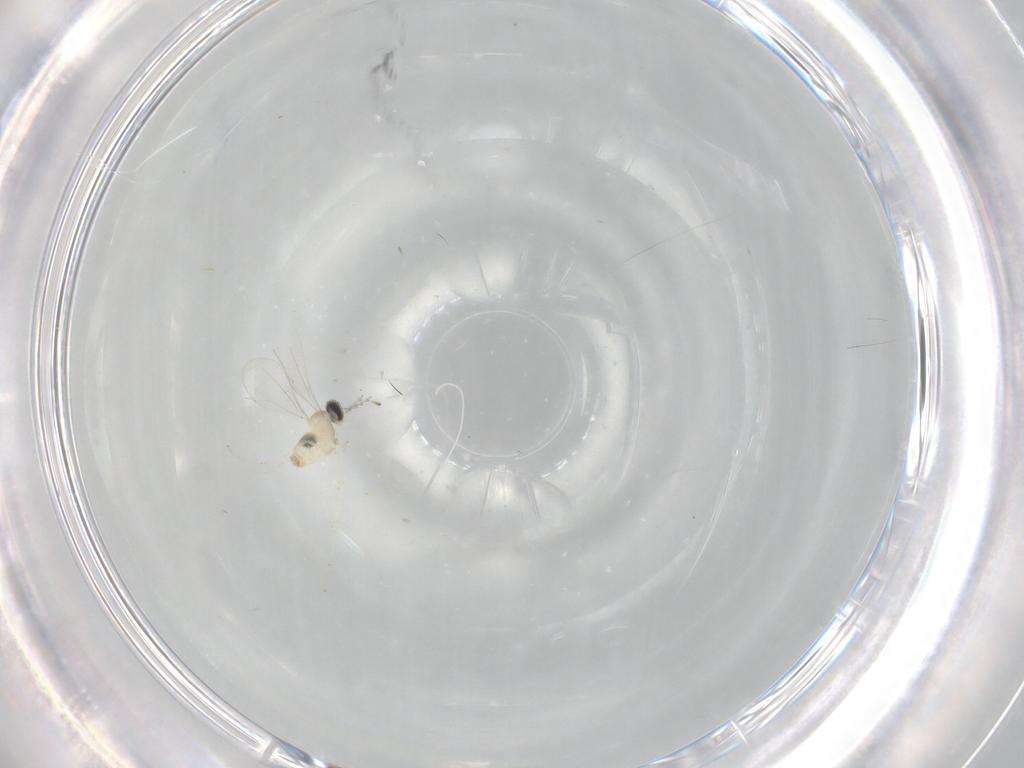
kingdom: Animalia
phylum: Arthropoda
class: Insecta
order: Diptera
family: Cecidomyiidae
